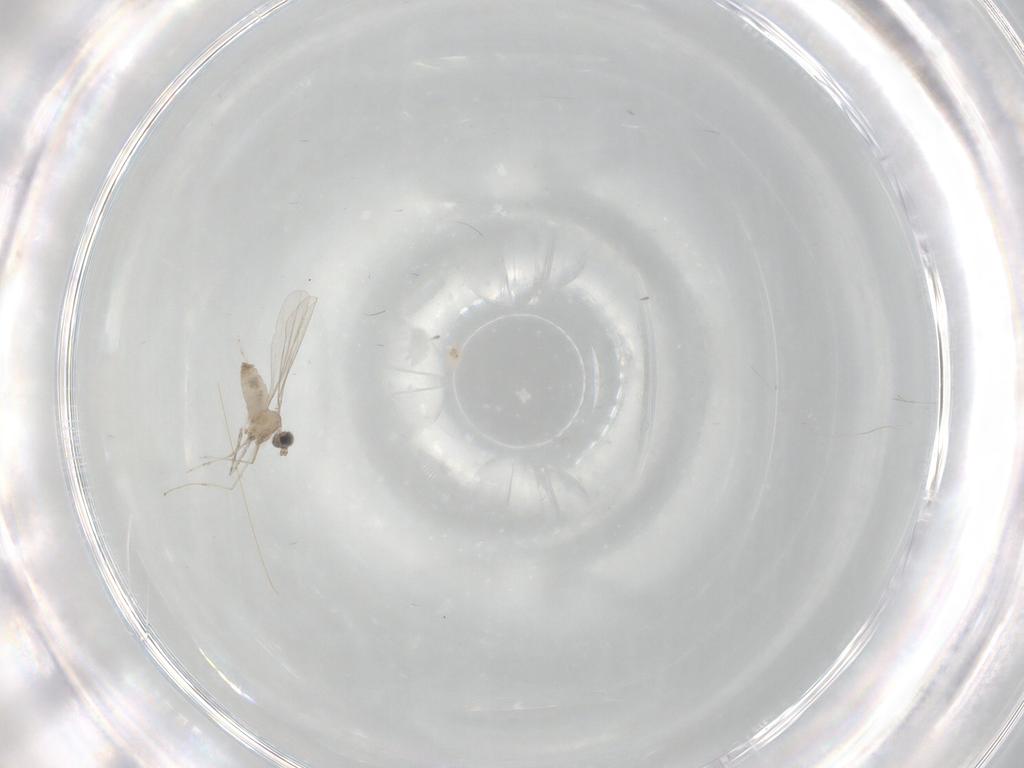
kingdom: Animalia
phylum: Arthropoda
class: Insecta
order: Diptera
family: Cecidomyiidae
